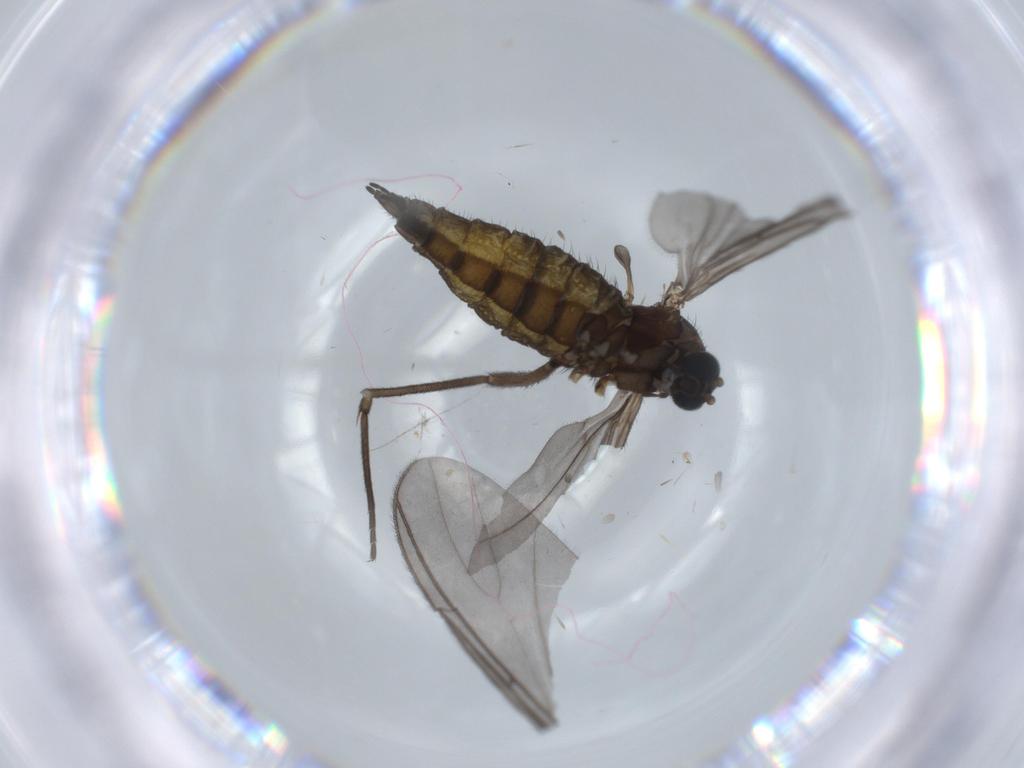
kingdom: Animalia
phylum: Arthropoda
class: Insecta
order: Diptera
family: Sciaridae
